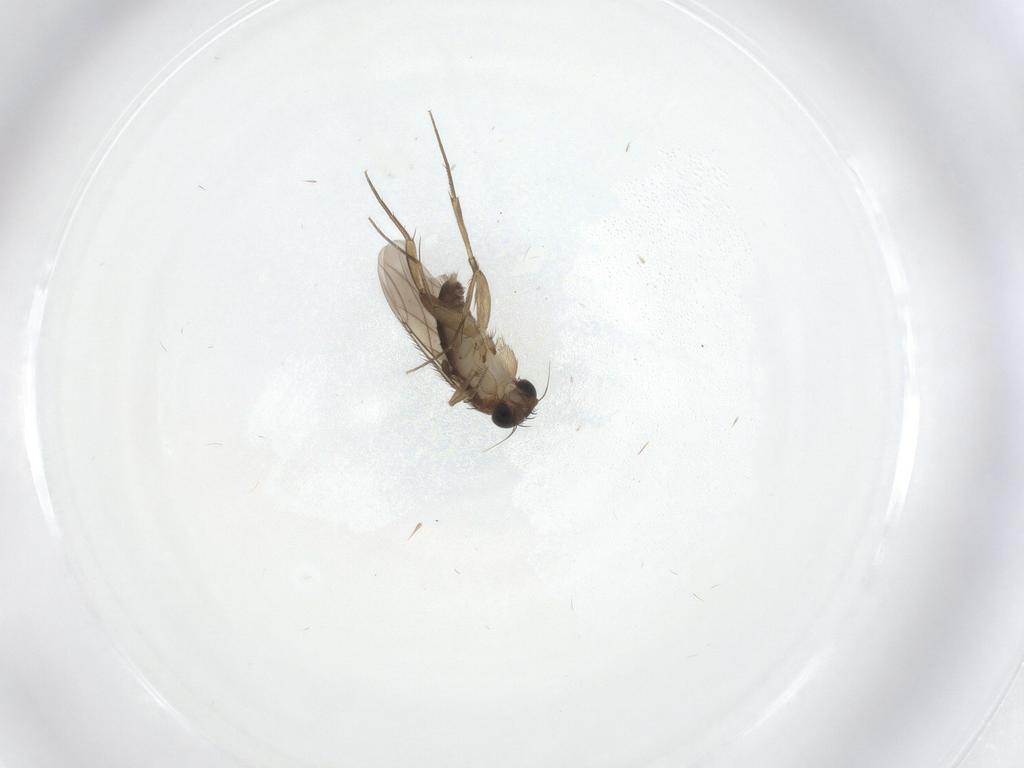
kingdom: Animalia
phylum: Arthropoda
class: Insecta
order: Diptera
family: Phoridae
